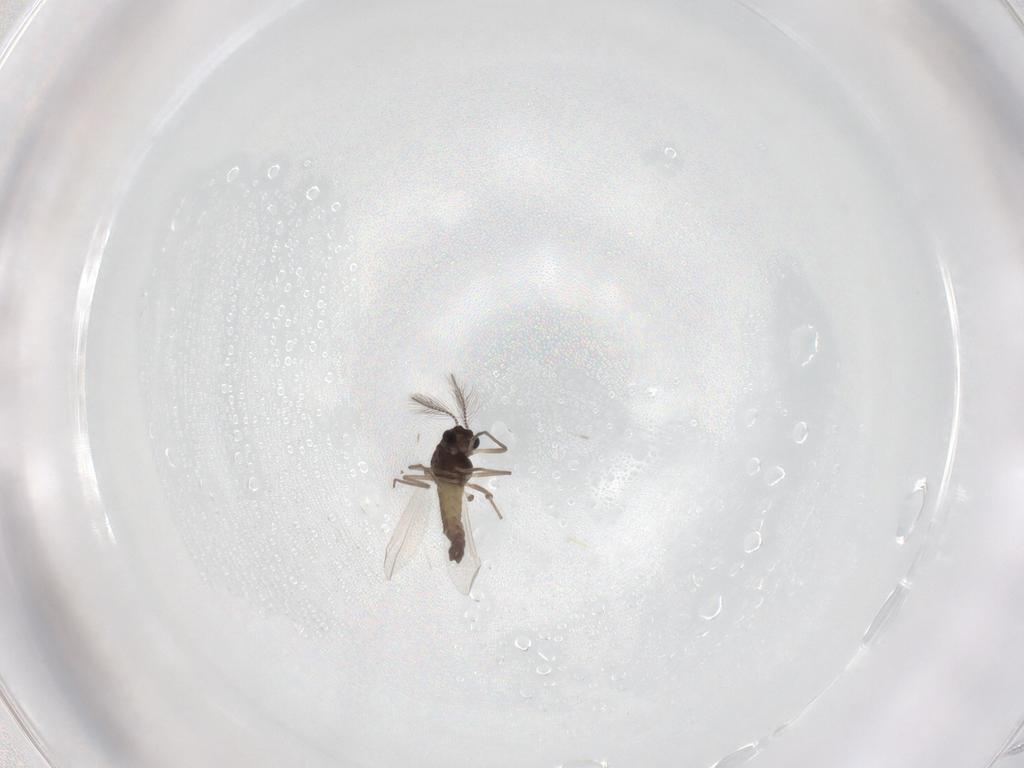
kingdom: Animalia
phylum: Arthropoda
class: Insecta
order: Diptera
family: Chironomidae
